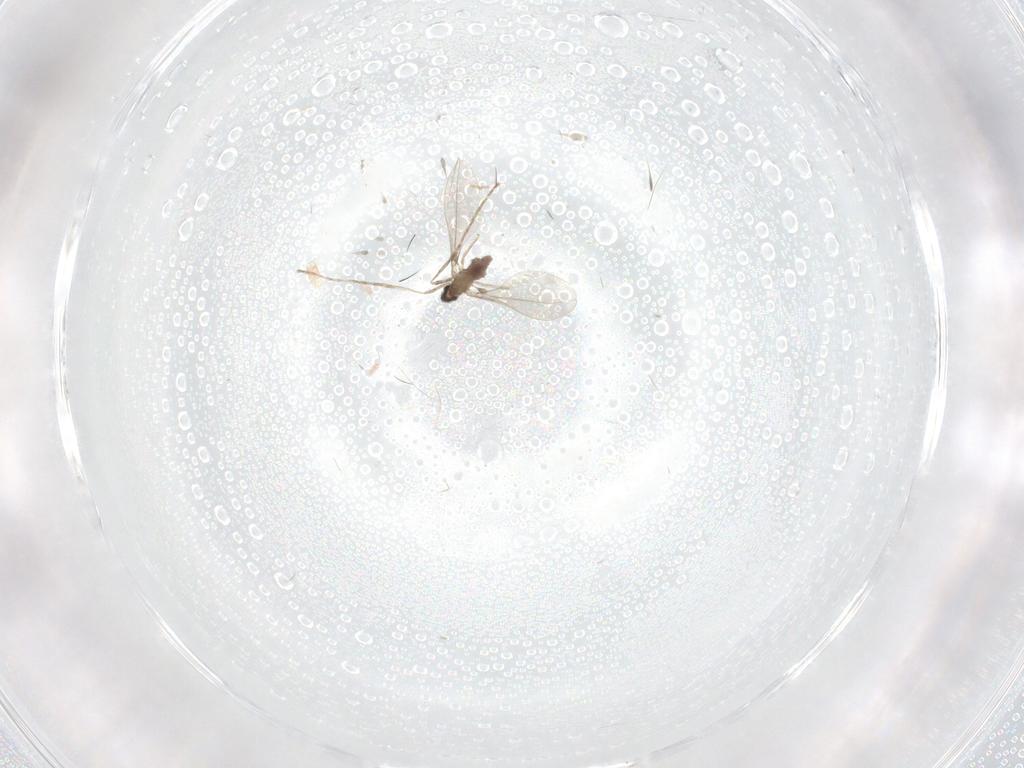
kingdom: Animalia
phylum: Arthropoda
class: Insecta
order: Diptera
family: Cecidomyiidae
